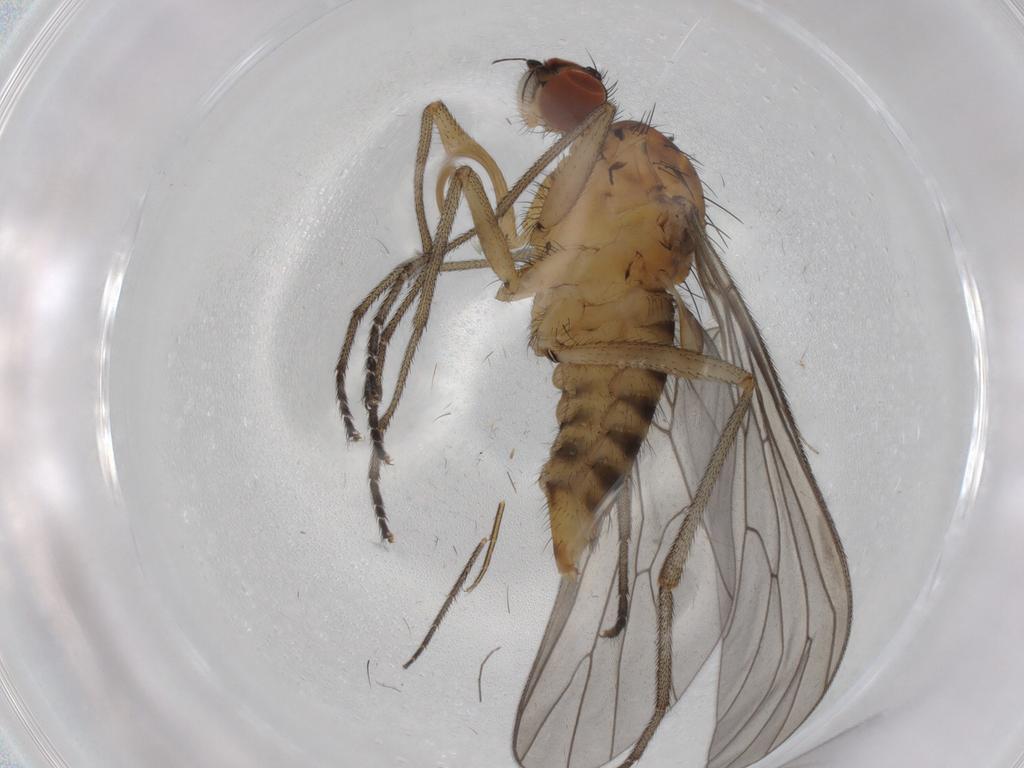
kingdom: Animalia
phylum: Arthropoda
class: Insecta
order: Diptera
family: Brachystomatidae
